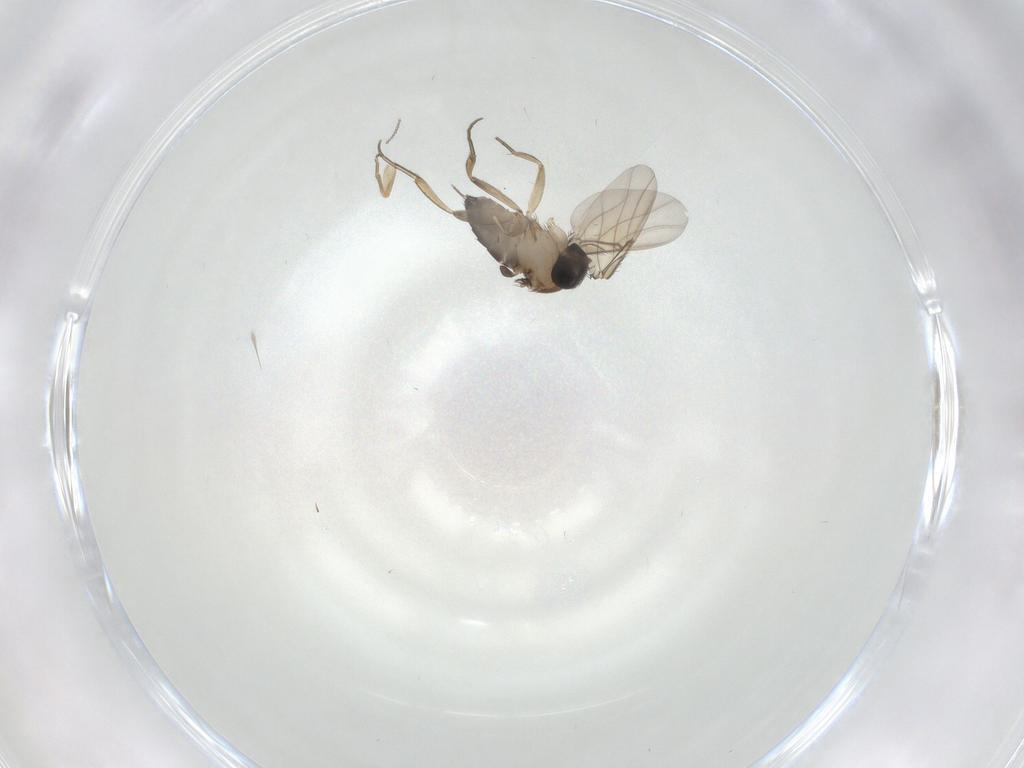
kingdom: Animalia
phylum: Arthropoda
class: Insecta
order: Diptera
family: Phoridae
